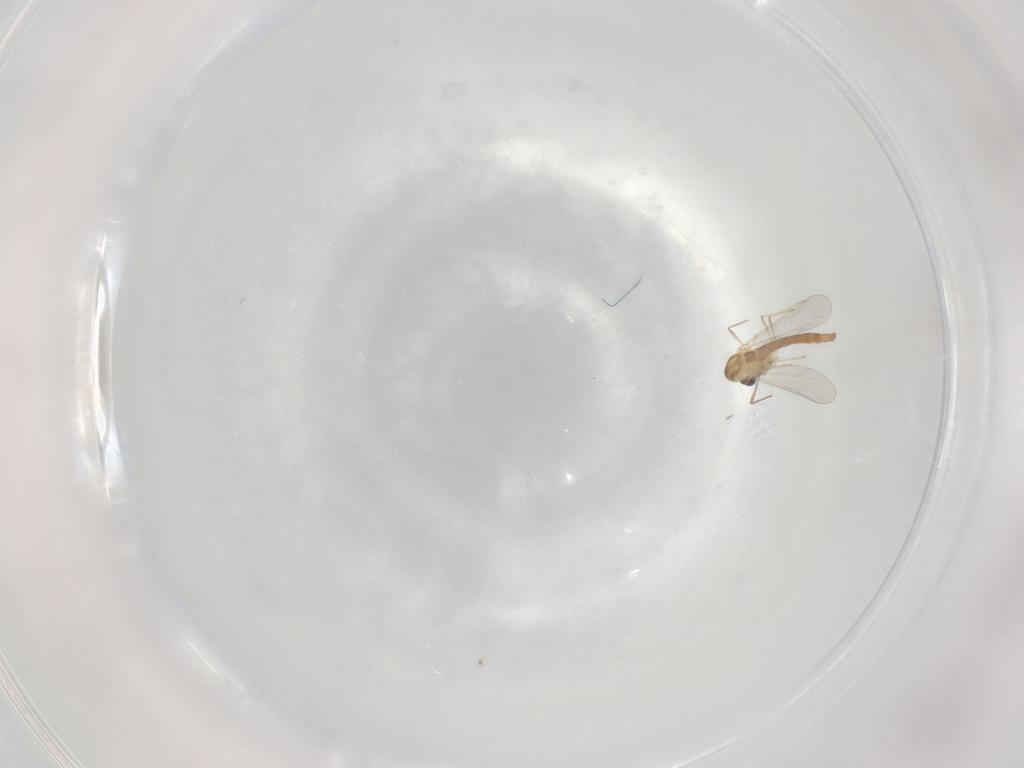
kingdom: Animalia
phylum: Arthropoda
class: Insecta
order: Diptera
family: Chironomidae
